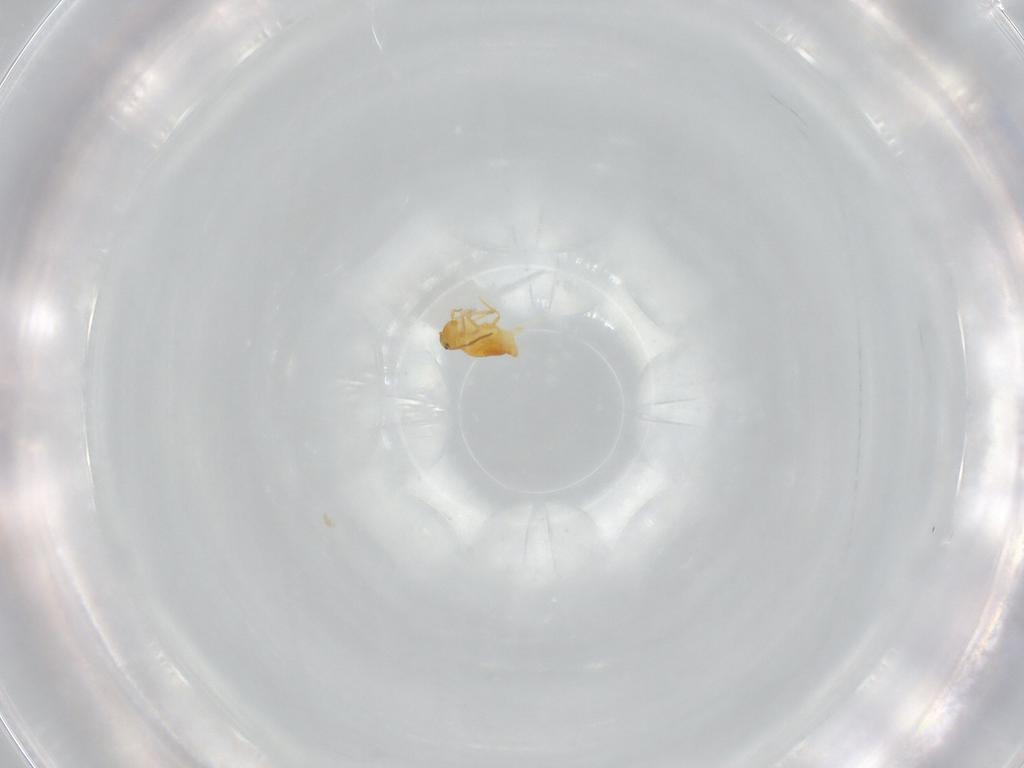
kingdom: Animalia
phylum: Arthropoda
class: Collembola
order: Symphypleona
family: Bourletiellidae
